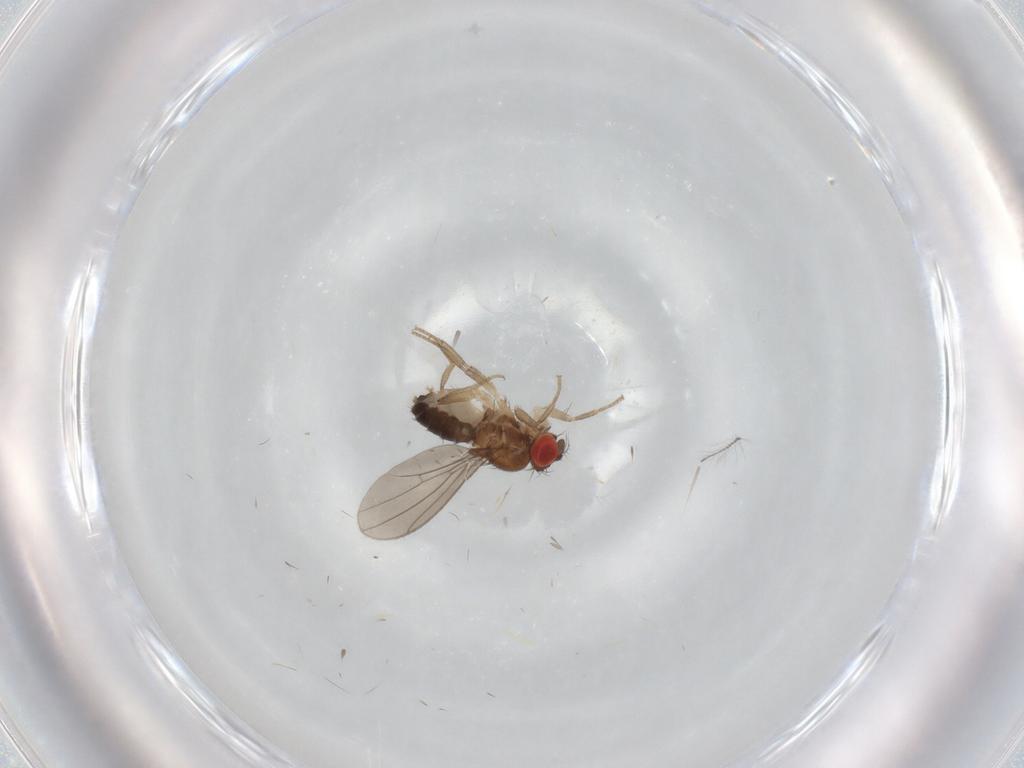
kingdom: Animalia
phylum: Arthropoda
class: Insecta
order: Diptera
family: Drosophilidae
